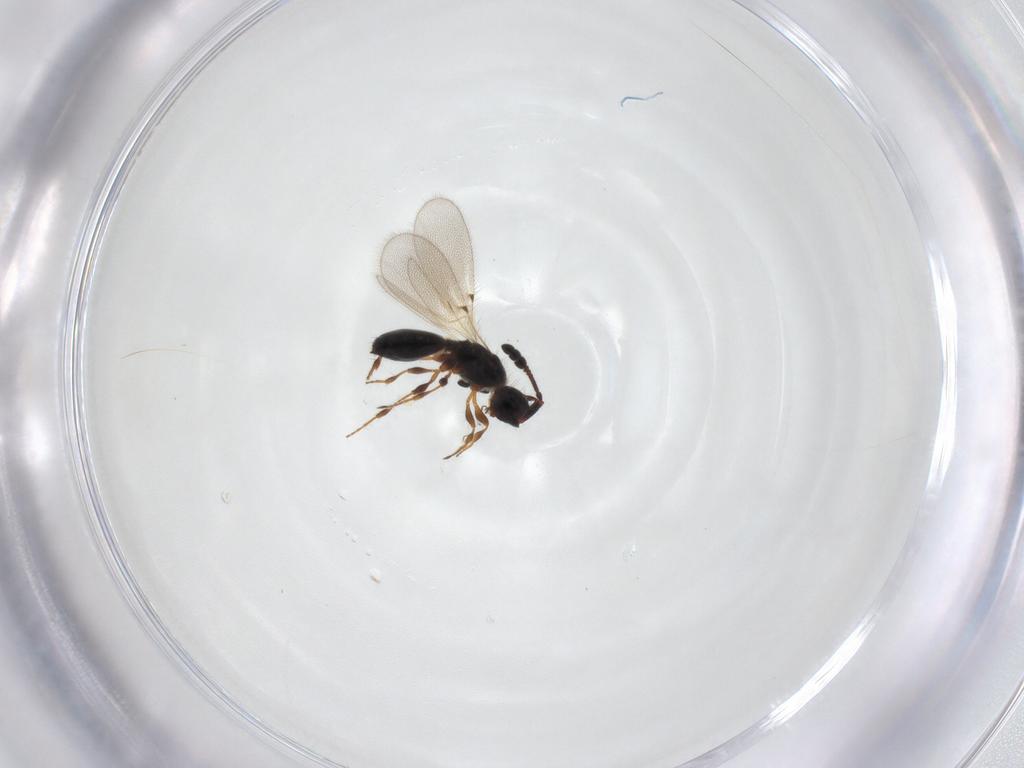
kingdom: Animalia
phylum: Arthropoda
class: Insecta
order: Hymenoptera
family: Diapriidae
